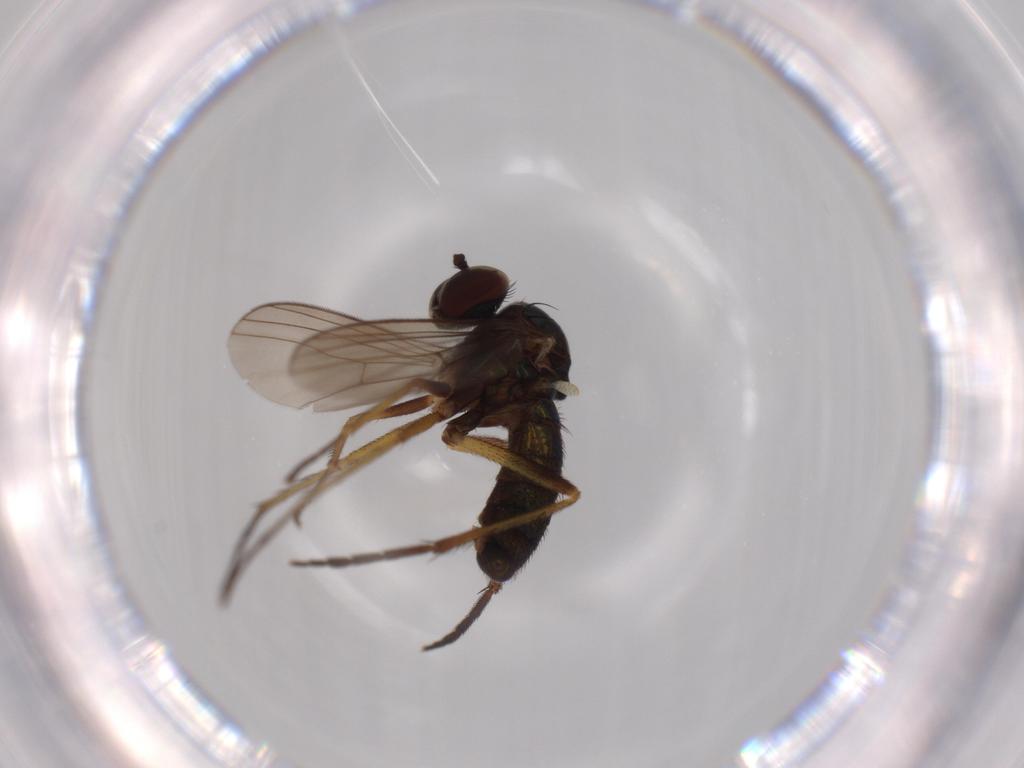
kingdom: Animalia
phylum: Arthropoda
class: Insecta
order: Diptera
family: Dolichopodidae
